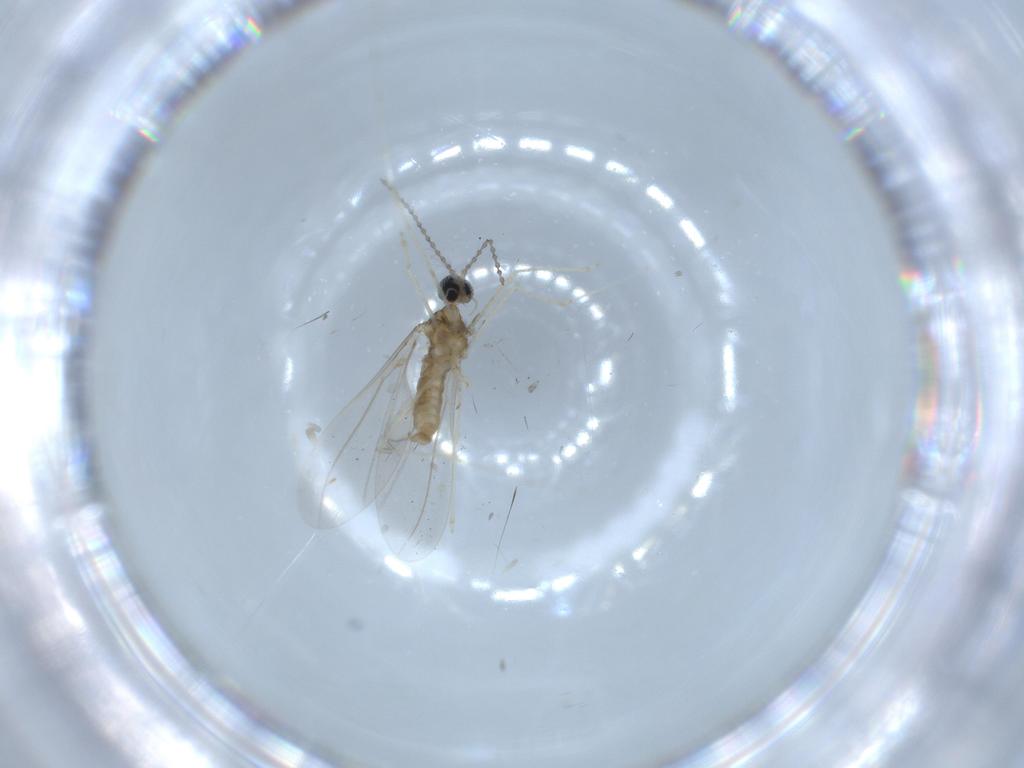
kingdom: Animalia
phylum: Arthropoda
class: Insecta
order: Diptera
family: Cecidomyiidae
